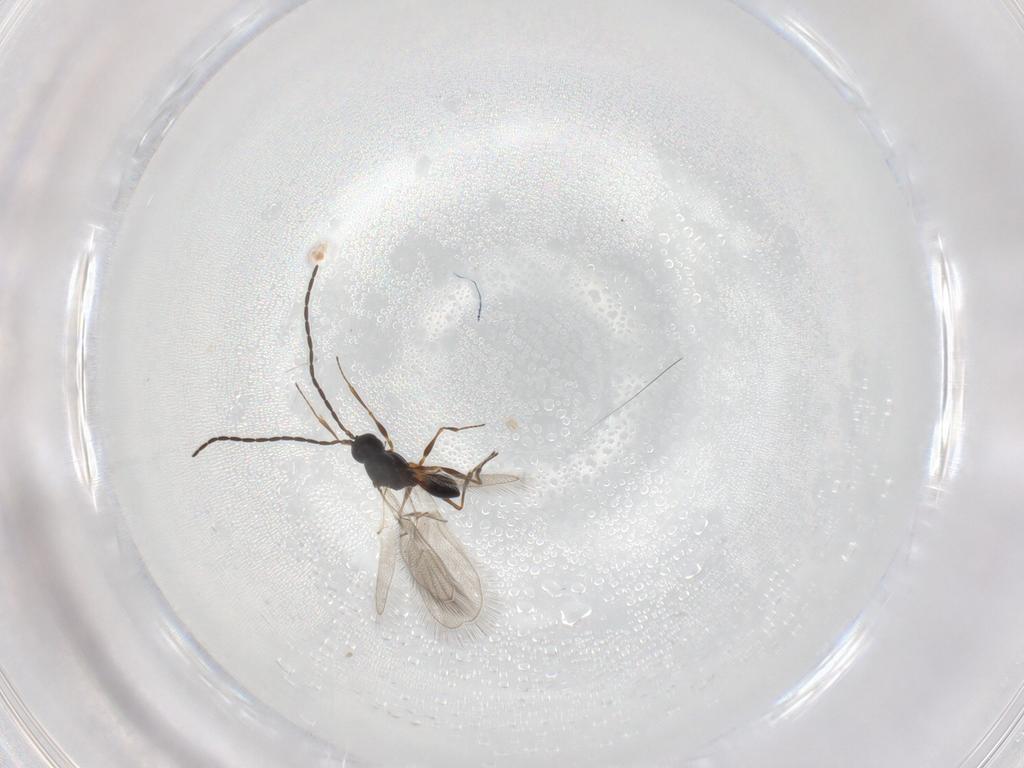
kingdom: Animalia
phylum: Arthropoda
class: Insecta
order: Hymenoptera
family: Figitidae
